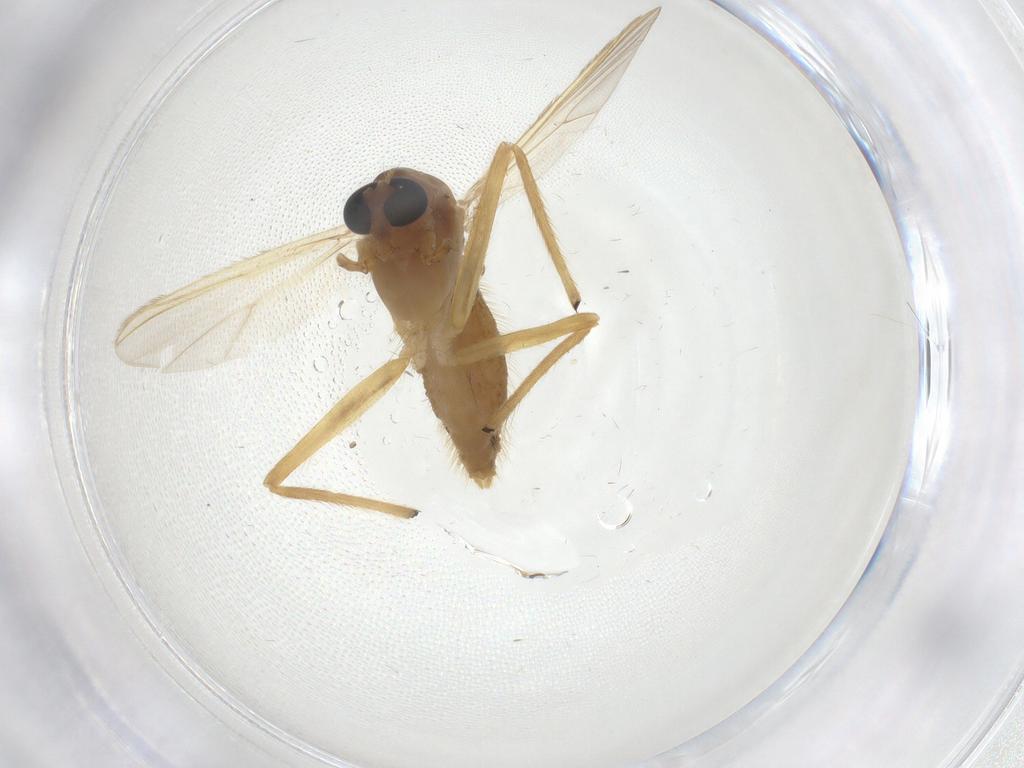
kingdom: Animalia
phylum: Arthropoda
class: Insecta
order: Diptera
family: Chironomidae
